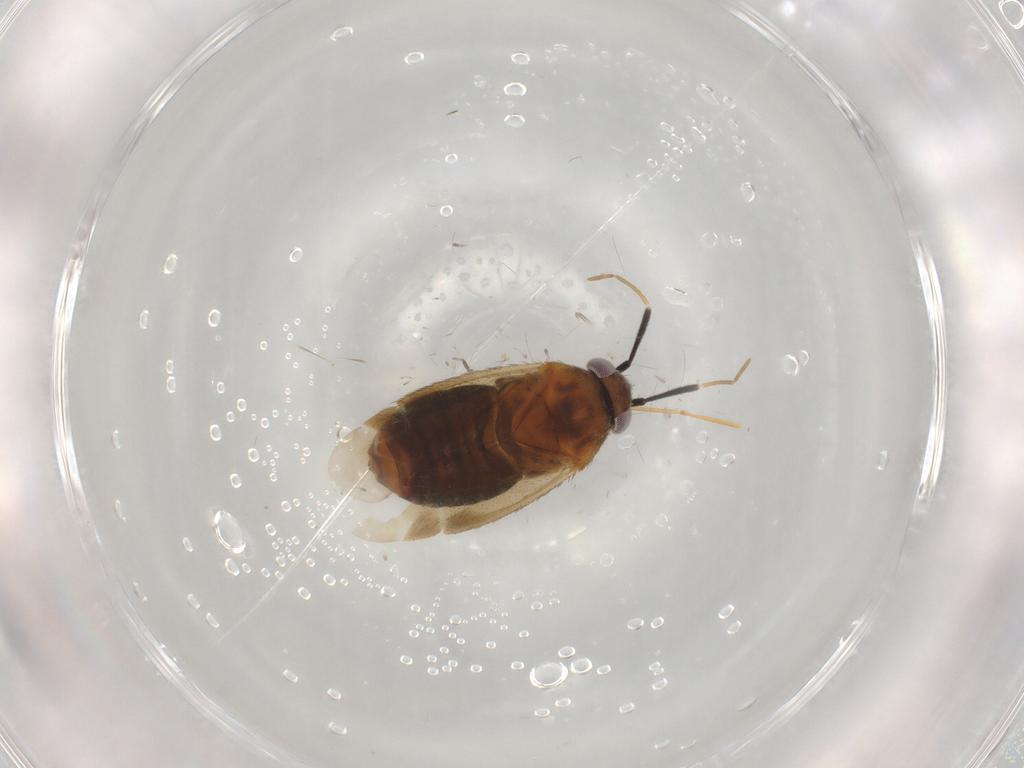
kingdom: Animalia
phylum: Arthropoda
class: Insecta
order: Hemiptera
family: Miridae
